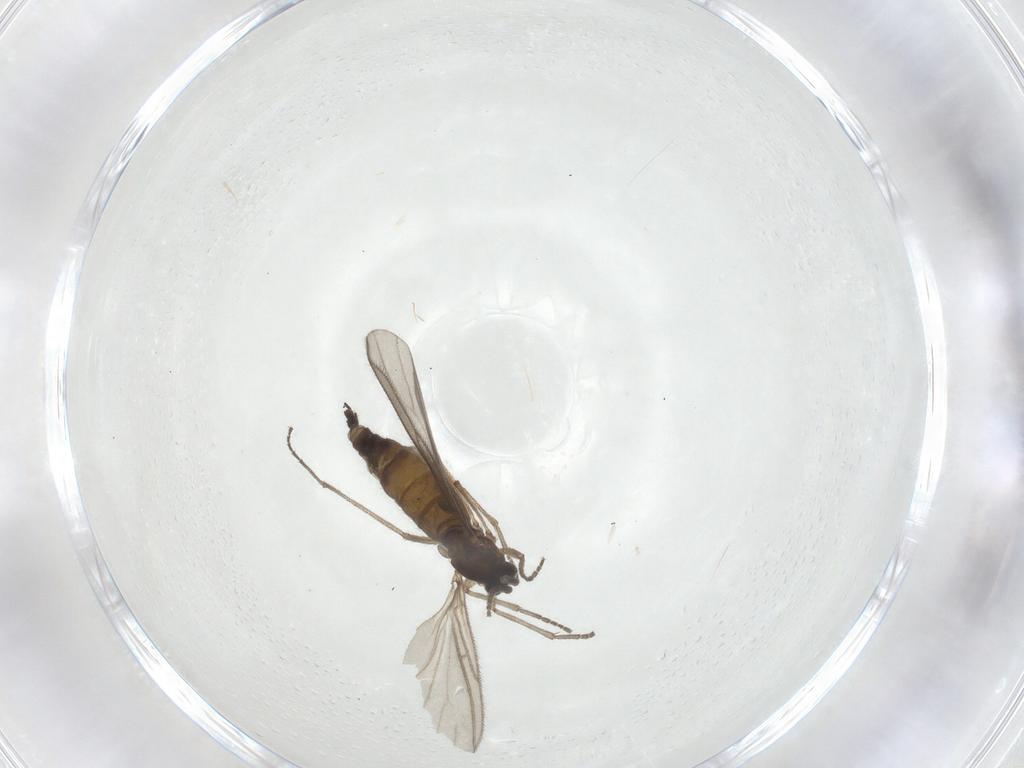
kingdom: Animalia
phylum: Arthropoda
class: Insecta
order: Diptera
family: Sciaridae
